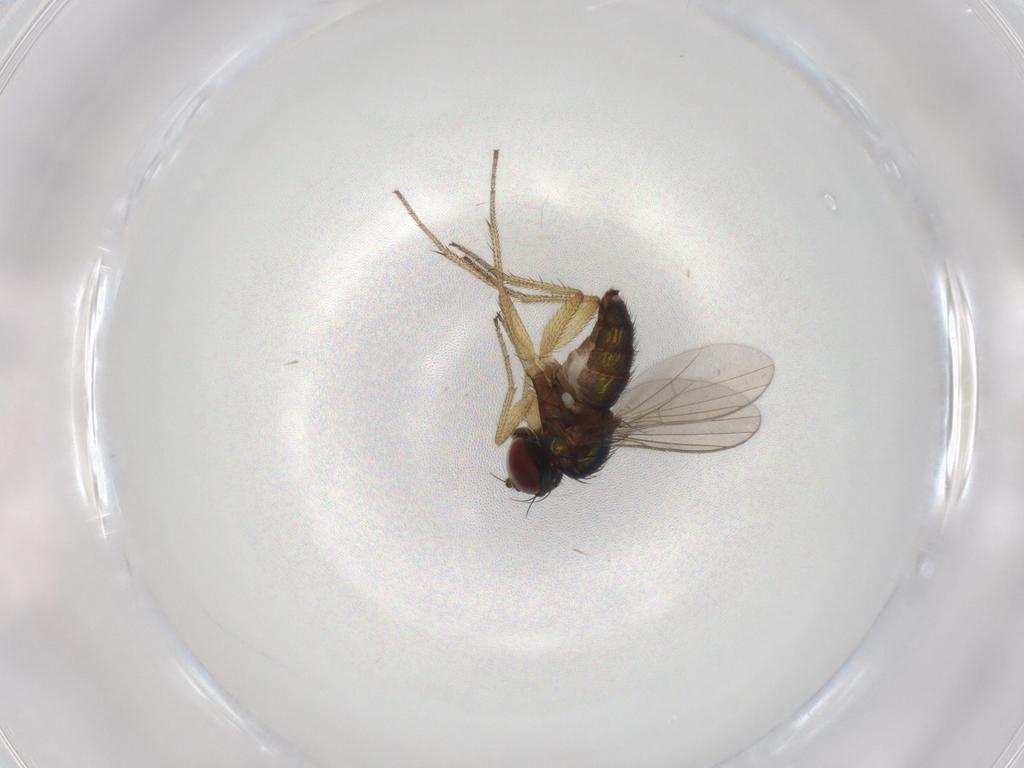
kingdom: Animalia
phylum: Arthropoda
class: Insecta
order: Diptera
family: Dolichopodidae
